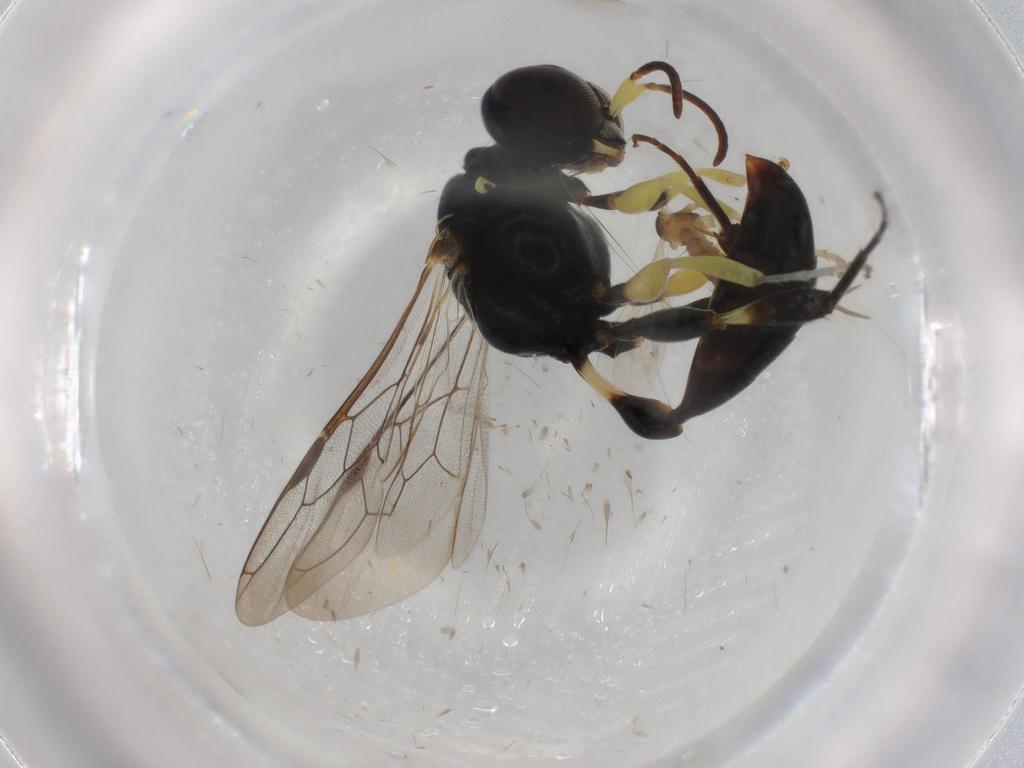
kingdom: Animalia
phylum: Arthropoda
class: Insecta
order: Hymenoptera
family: Crabronidae
